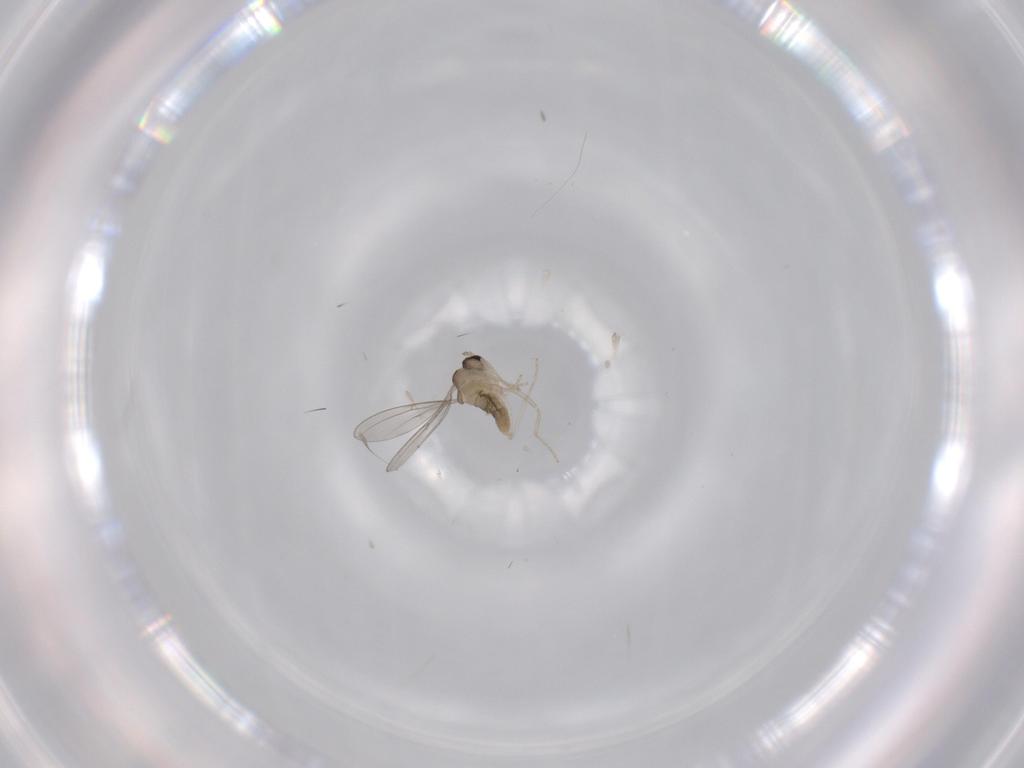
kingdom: Animalia
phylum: Arthropoda
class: Insecta
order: Diptera
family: Cecidomyiidae
